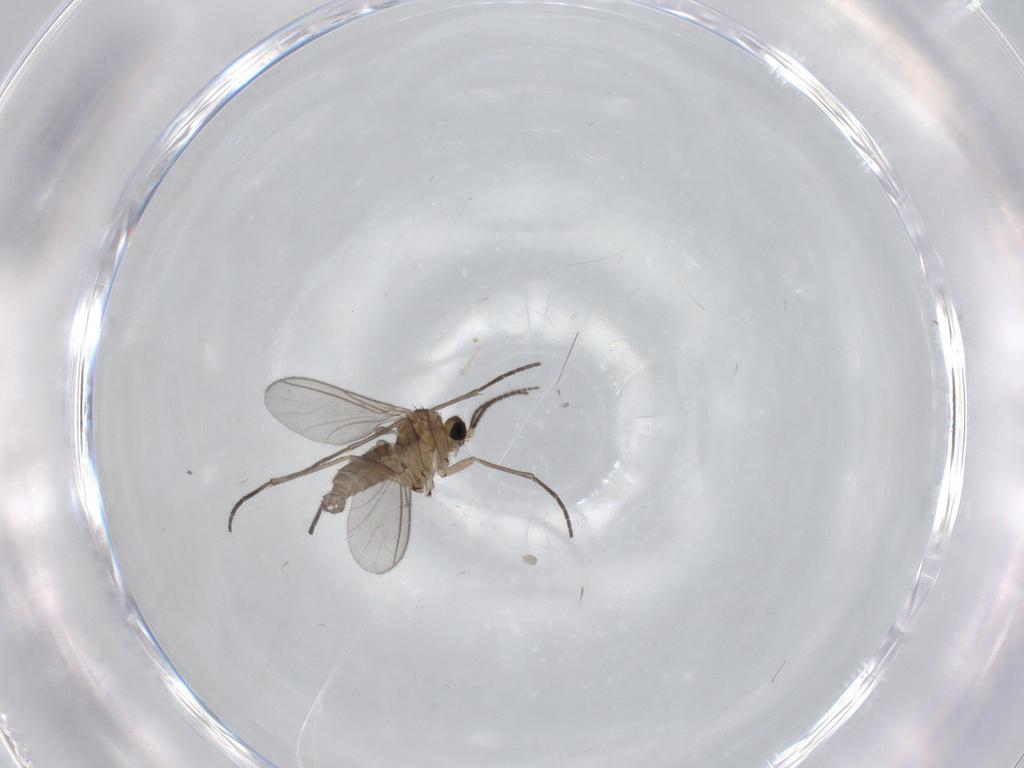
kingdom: Animalia
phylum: Arthropoda
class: Insecta
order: Diptera
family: Sciaridae
